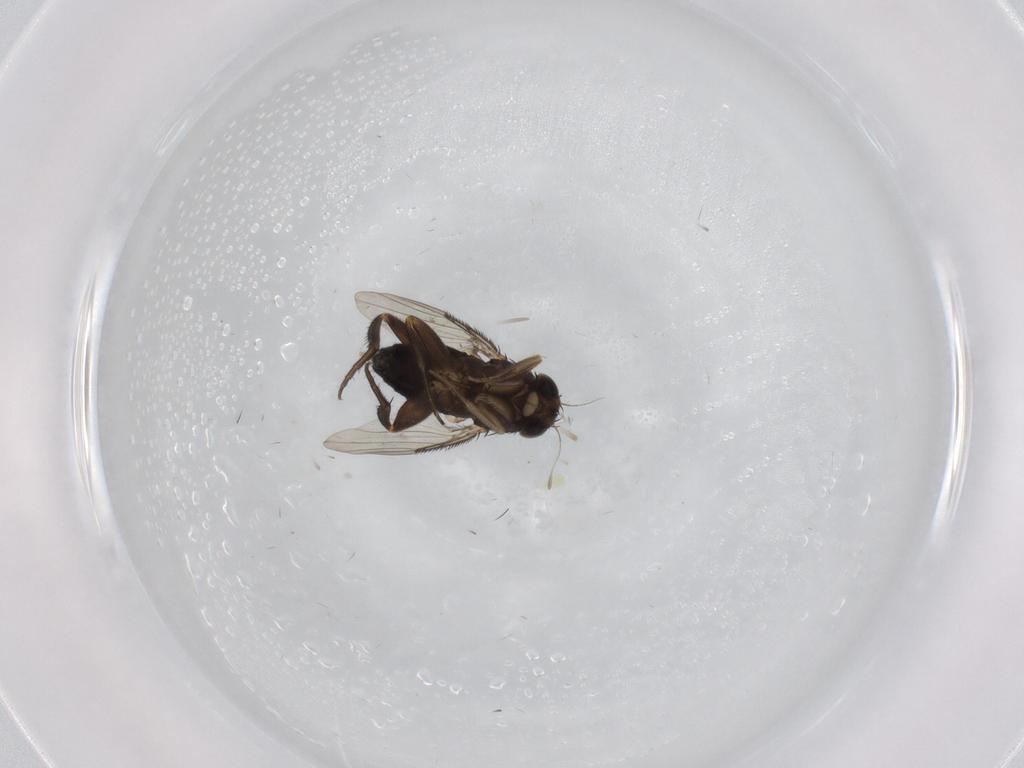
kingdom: Animalia
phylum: Arthropoda
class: Insecta
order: Diptera
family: Phoridae
